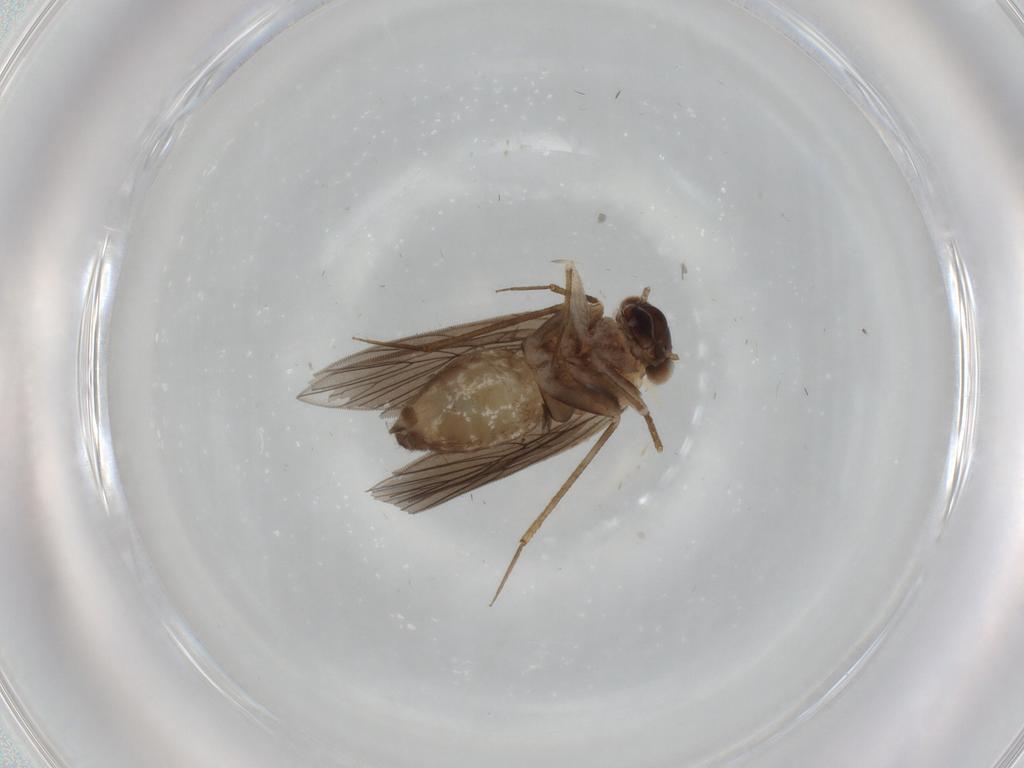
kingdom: Animalia
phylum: Arthropoda
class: Insecta
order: Psocodea
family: Lepidopsocidae
